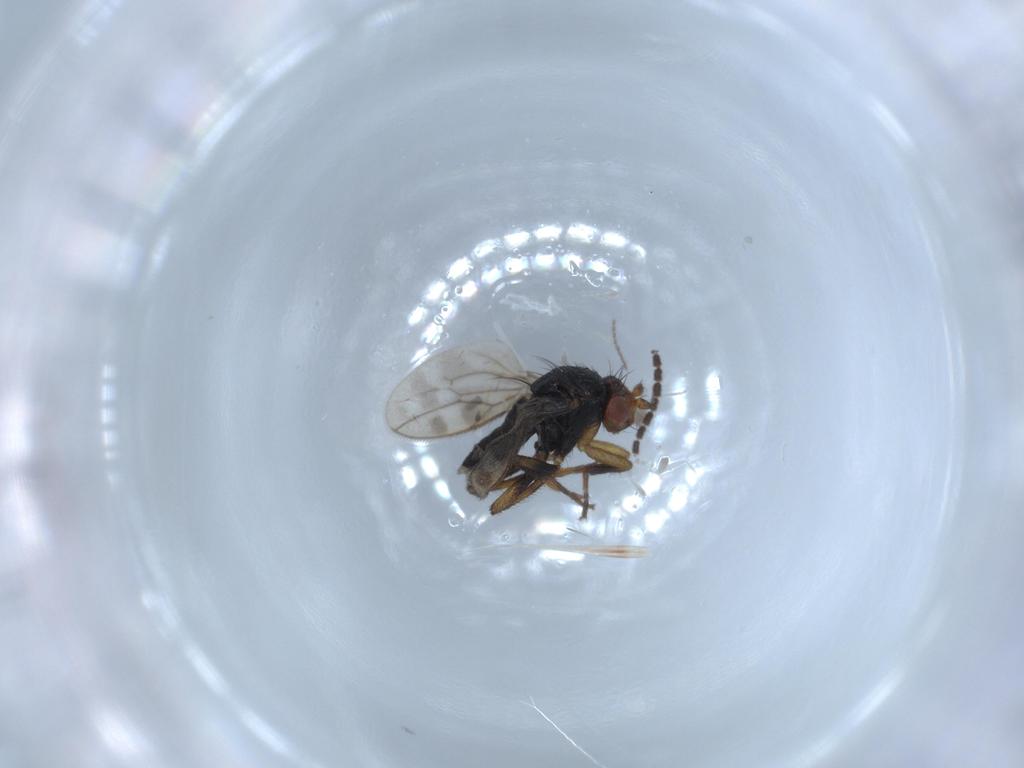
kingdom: Animalia
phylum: Arthropoda
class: Insecta
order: Diptera
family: Sphaeroceridae
